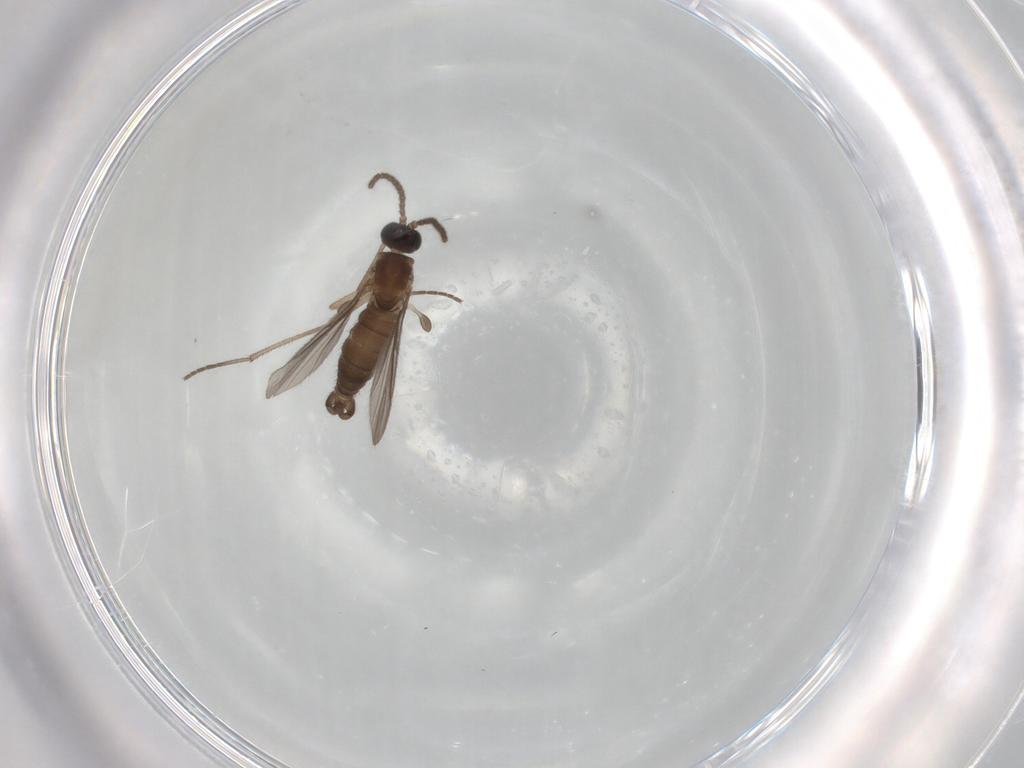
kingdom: Animalia
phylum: Arthropoda
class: Insecta
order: Diptera
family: Sciaridae
